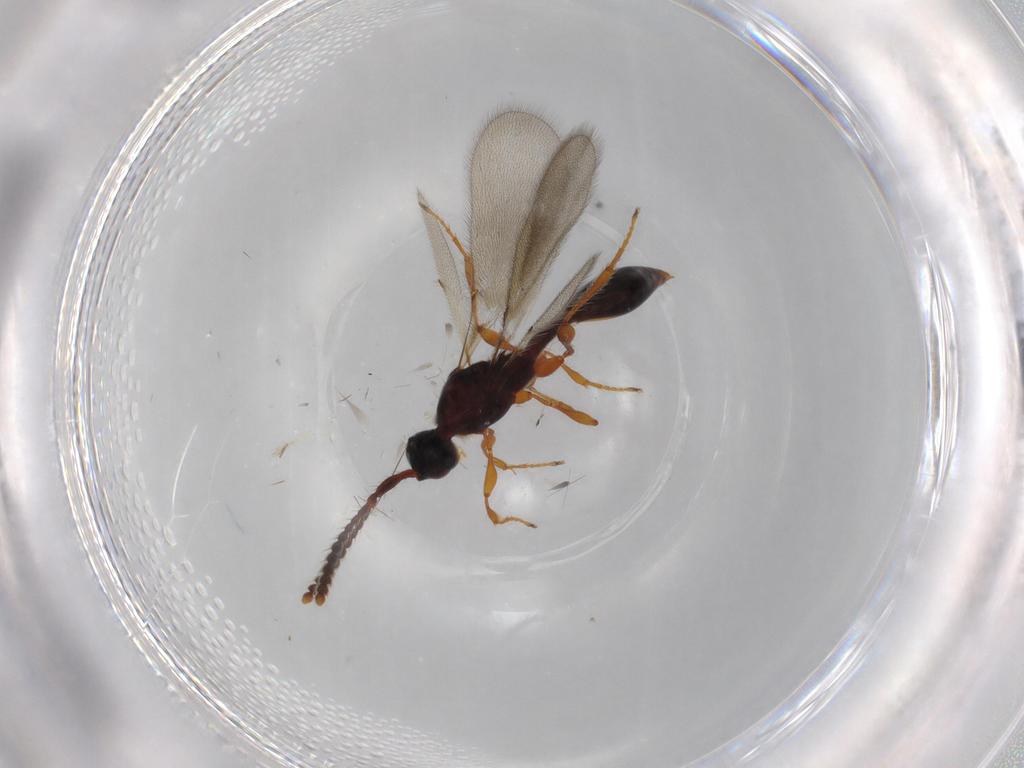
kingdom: Animalia
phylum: Arthropoda
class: Insecta
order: Hymenoptera
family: Diapriidae
